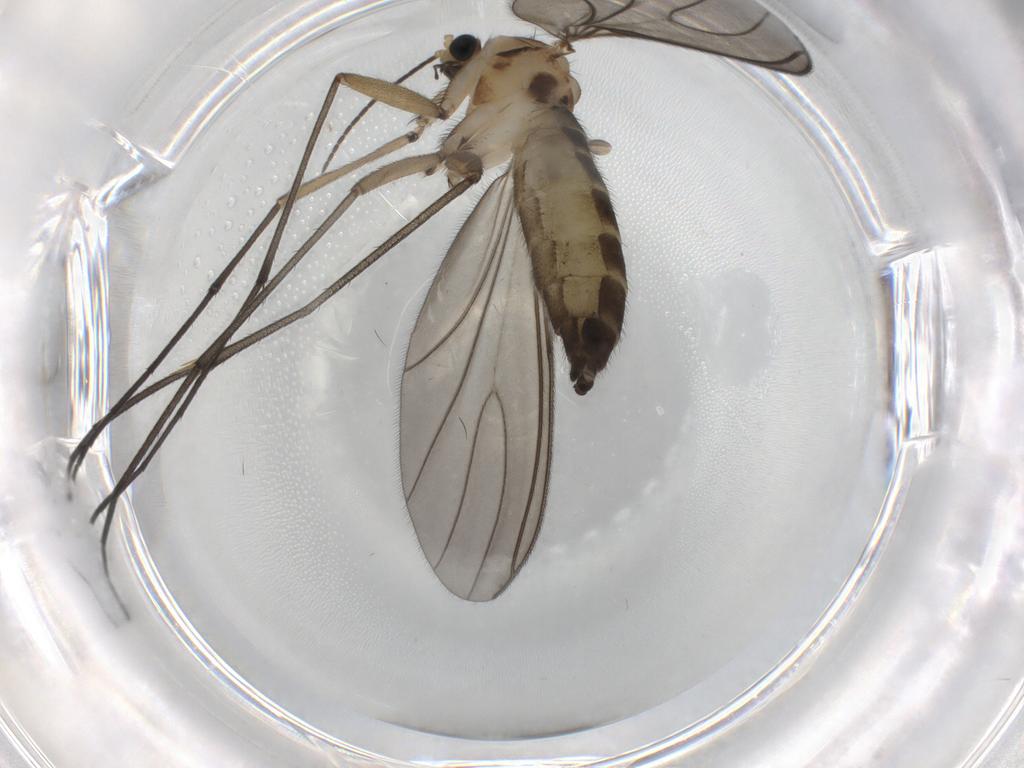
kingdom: Animalia
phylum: Arthropoda
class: Insecta
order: Diptera
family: Sciaridae
